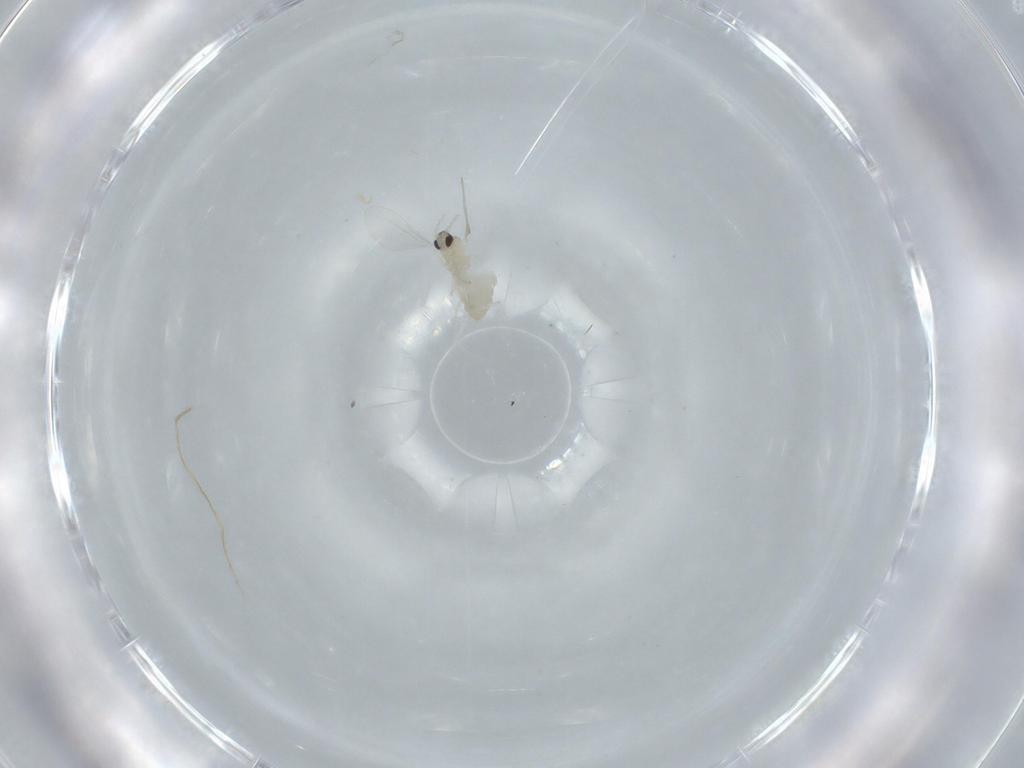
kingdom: Animalia
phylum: Arthropoda
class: Insecta
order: Diptera
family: Cecidomyiidae
